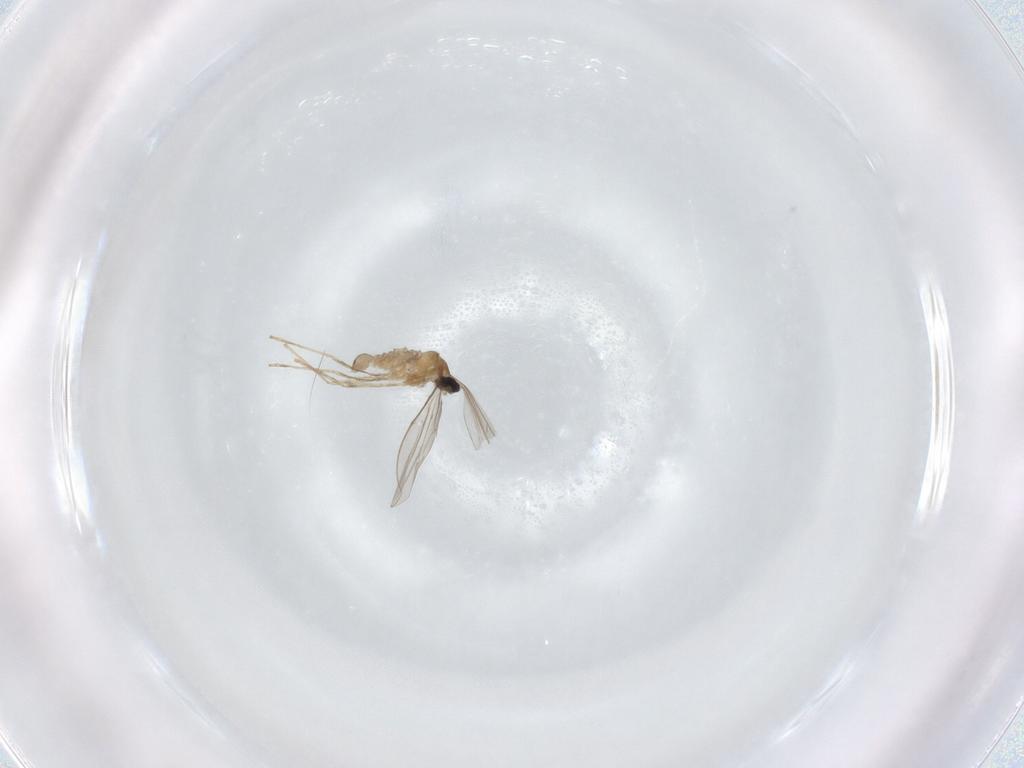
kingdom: Animalia
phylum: Arthropoda
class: Insecta
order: Diptera
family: Cecidomyiidae
